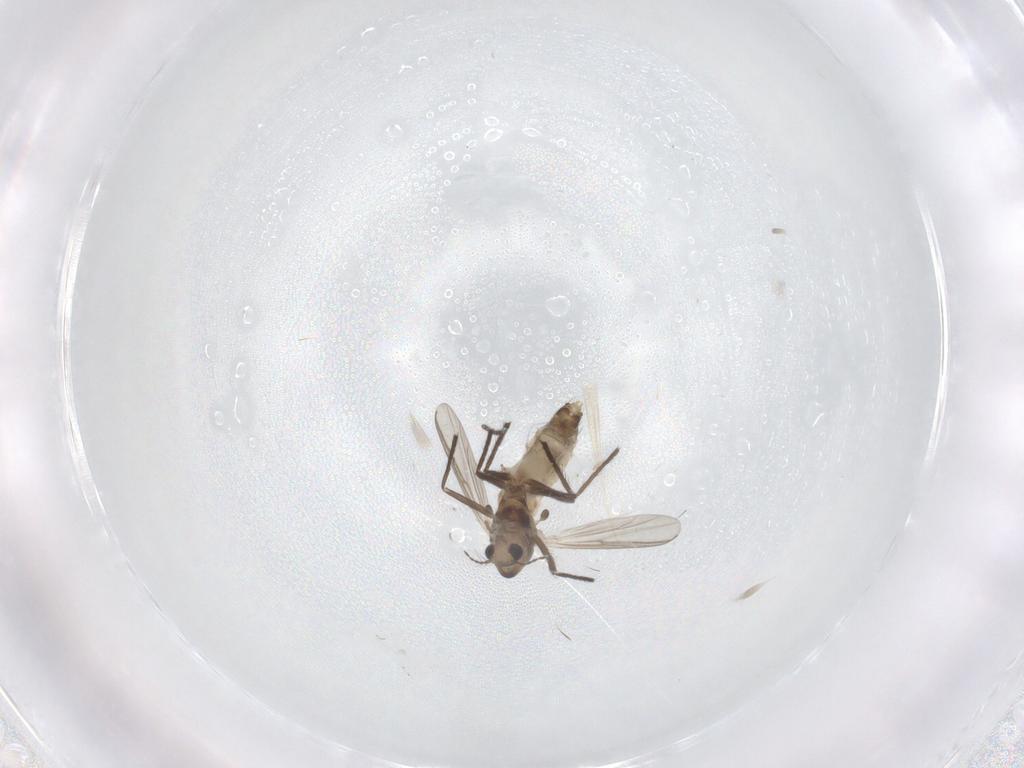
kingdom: Animalia
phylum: Arthropoda
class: Insecta
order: Diptera
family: Chironomidae
